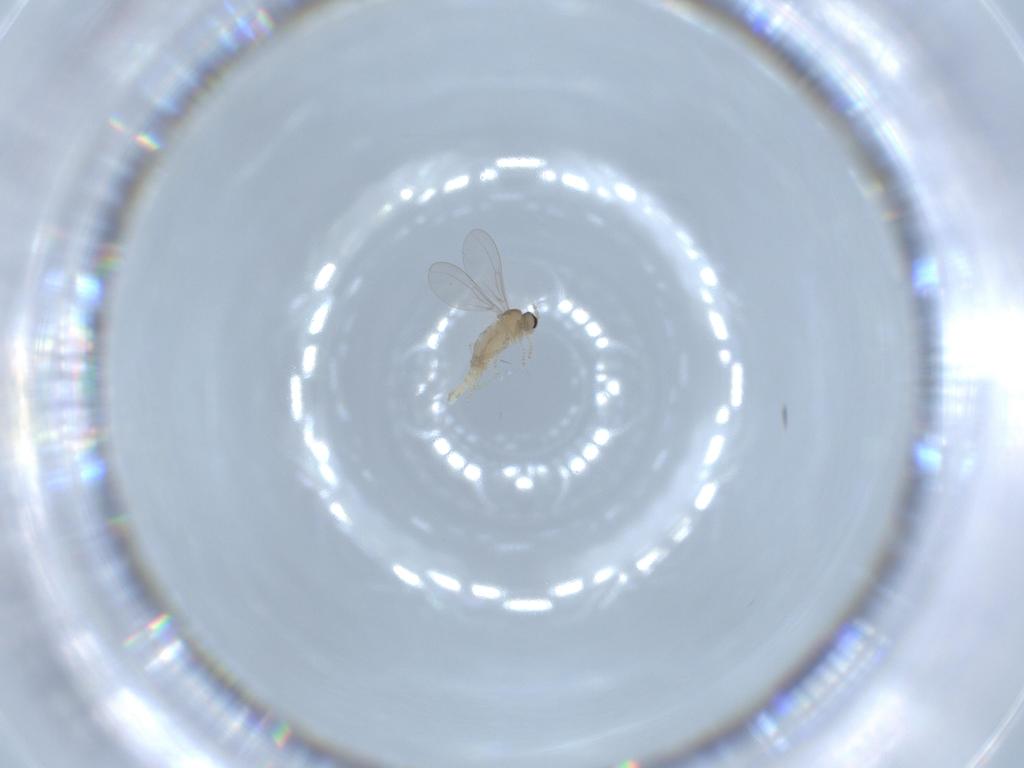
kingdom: Animalia
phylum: Arthropoda
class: Insecta
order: Diptera
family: Cecidomyiidae
